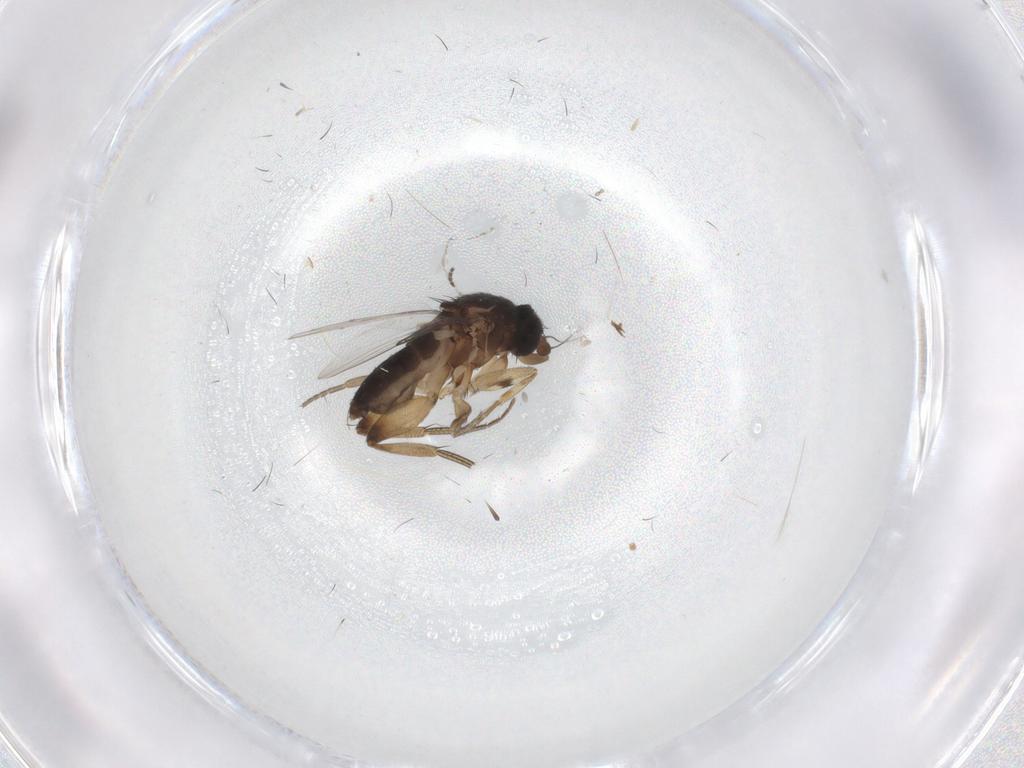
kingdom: Animalia
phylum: Arthropoda
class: Insecta
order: Diptera
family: Phoridae
